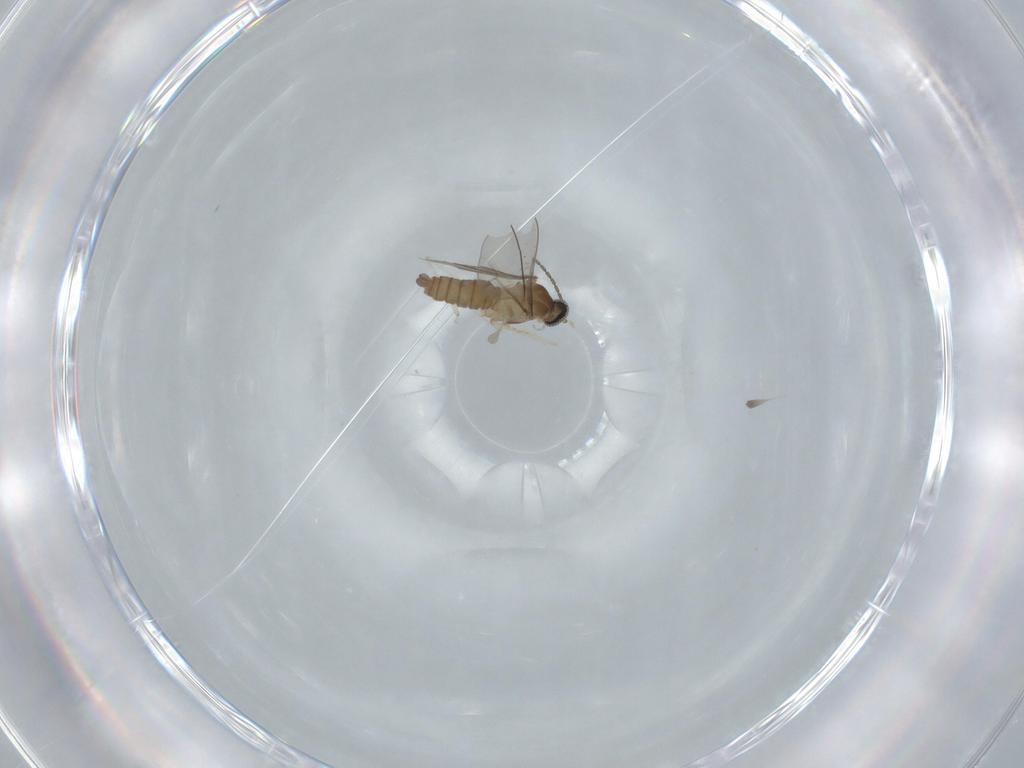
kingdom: Animalia
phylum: Arthropoda
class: Insecta
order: Diptera
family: Cecidomyiidae
